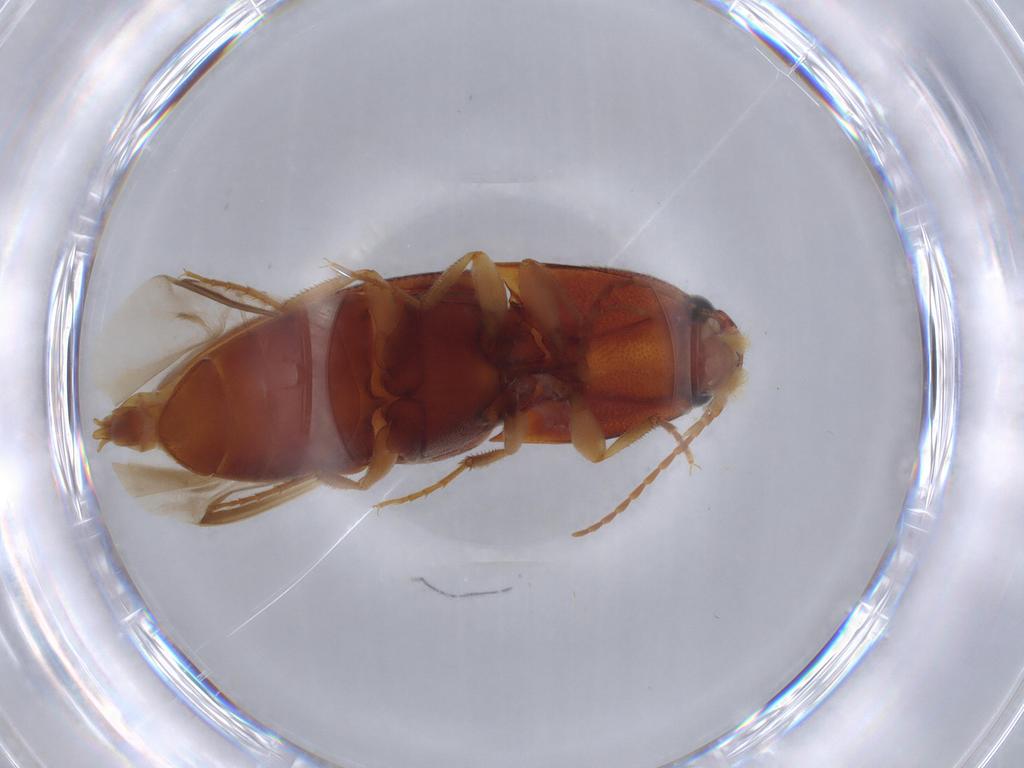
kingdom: Animalia
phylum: Arthropoda
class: Insecta
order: Coleoptera
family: Elateridae
